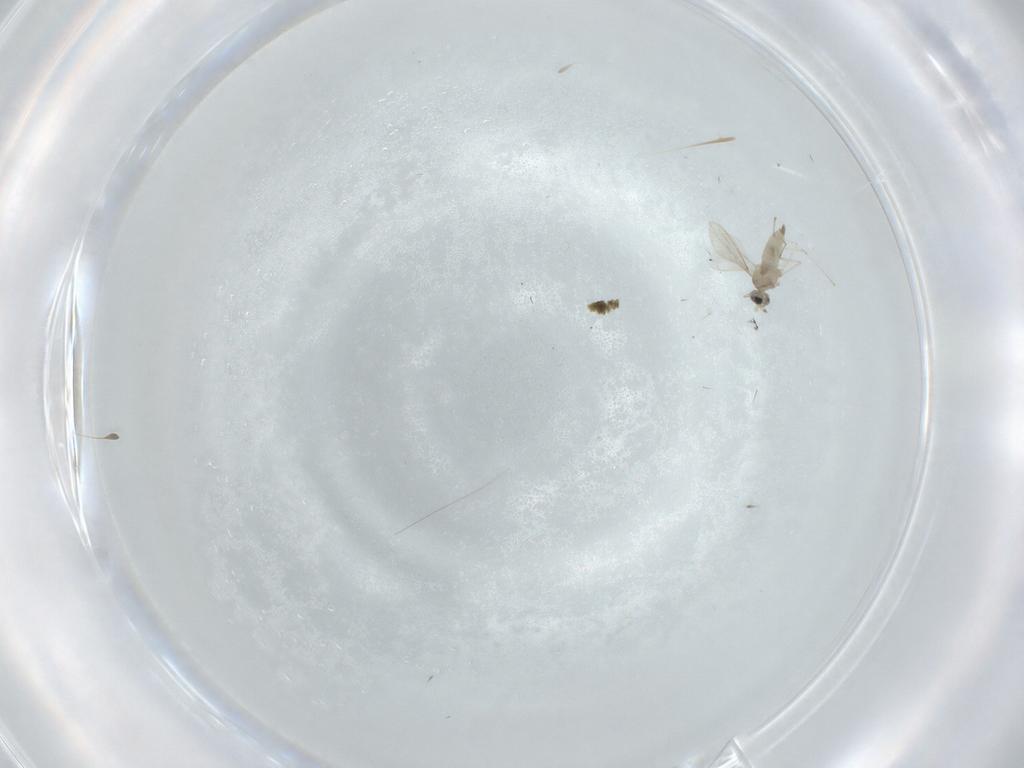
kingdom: Animalia
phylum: Arthropoda
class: Insecta
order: Diptera
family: Cecidomyiidae
